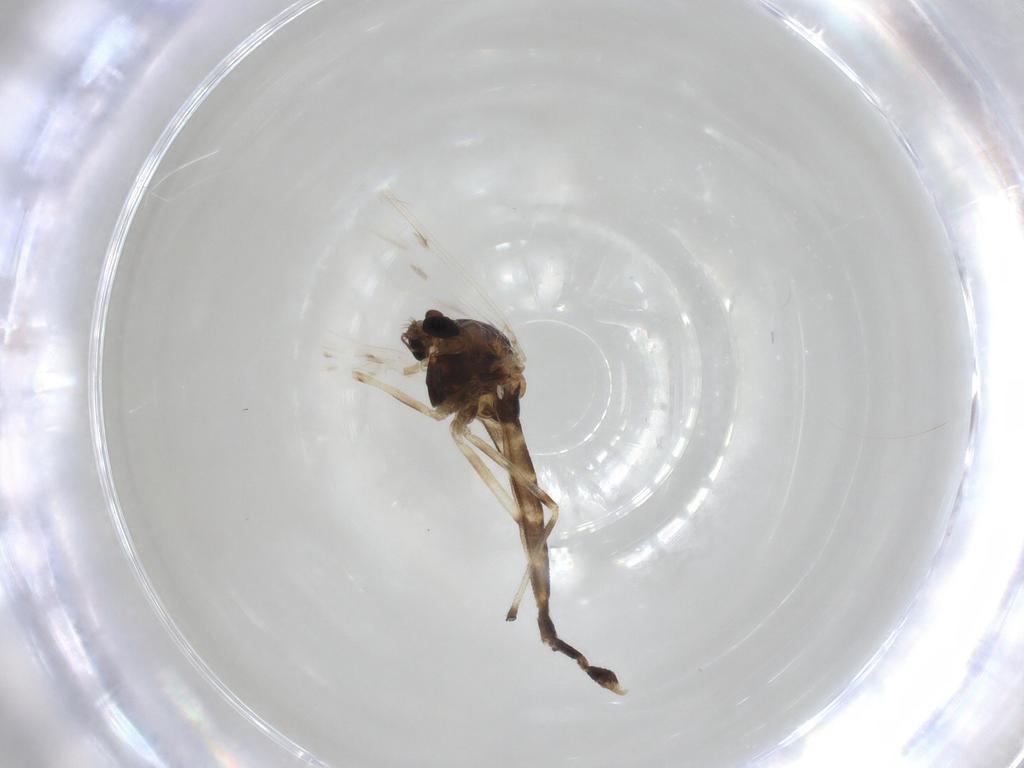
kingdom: Animalia
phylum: Arthropoda
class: Insecta
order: Diptera
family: Chironomidae
